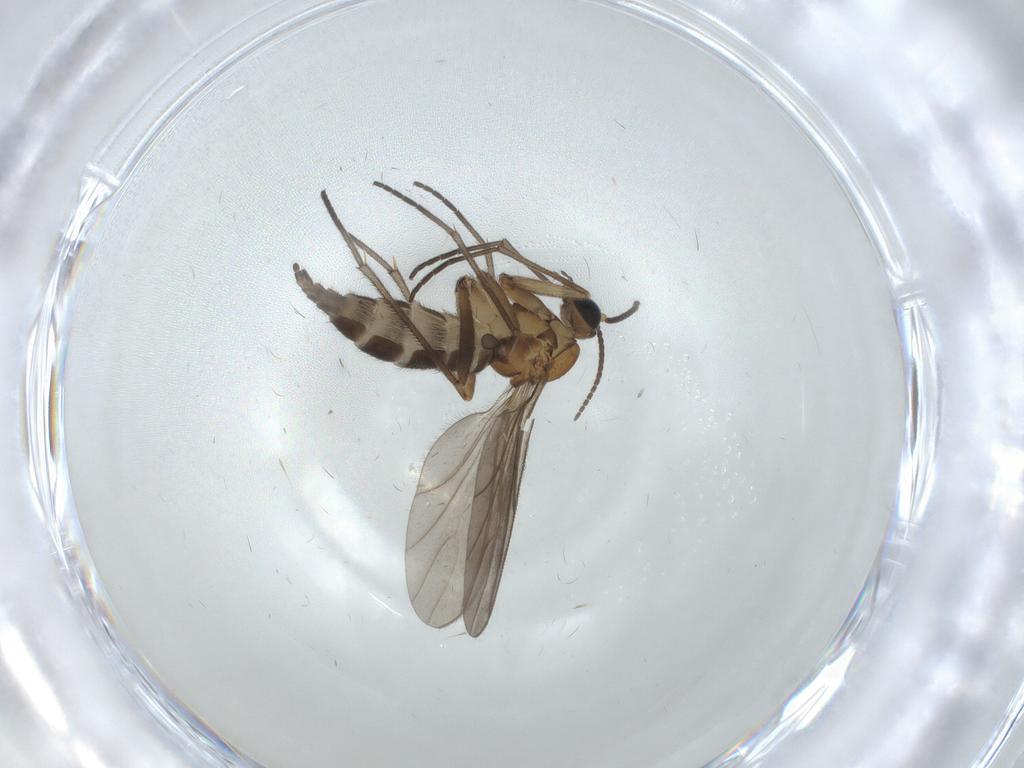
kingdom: Animalia
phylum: Arthropoda
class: Insecta
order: Diptera
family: Sciaridae
